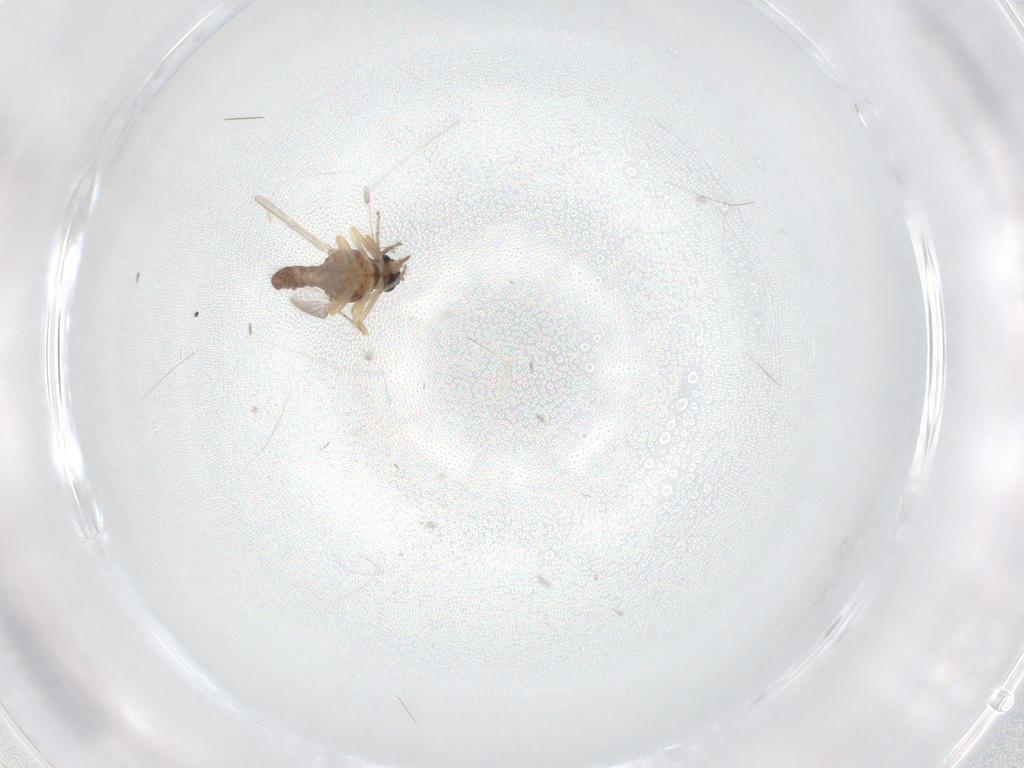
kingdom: Animalia
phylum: Arthropoda
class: Insecta
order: Diptera
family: Ceratopogonidae
